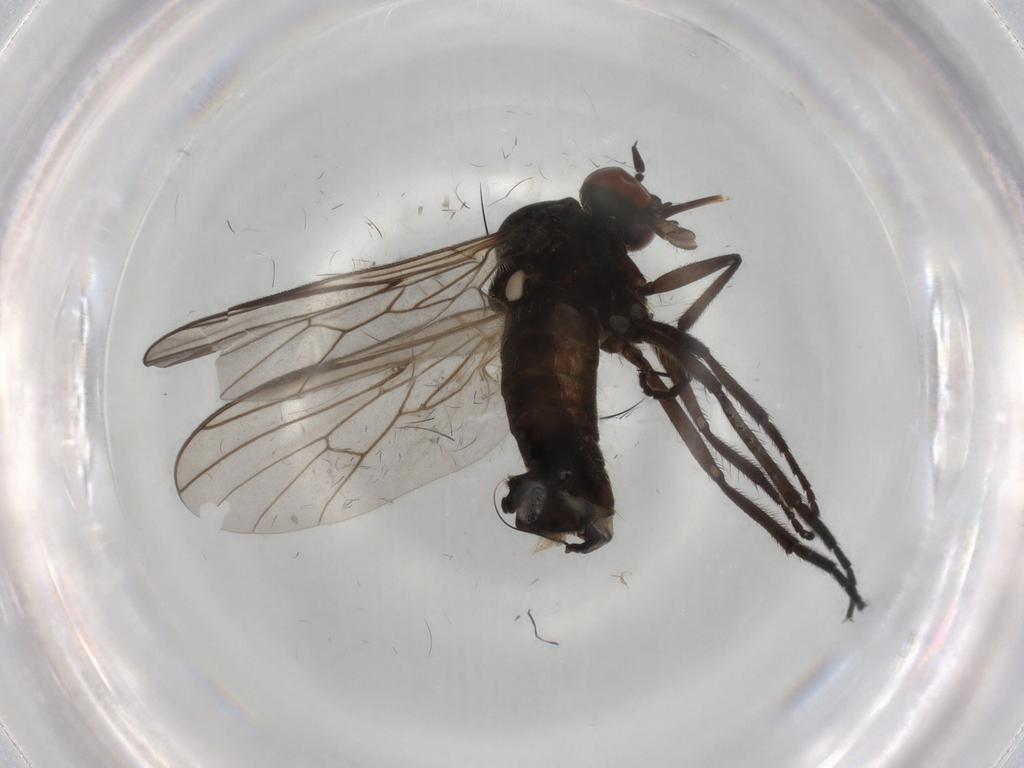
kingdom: Animalia
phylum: Arthropoda
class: Insecta
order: Diptera
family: Empididae
